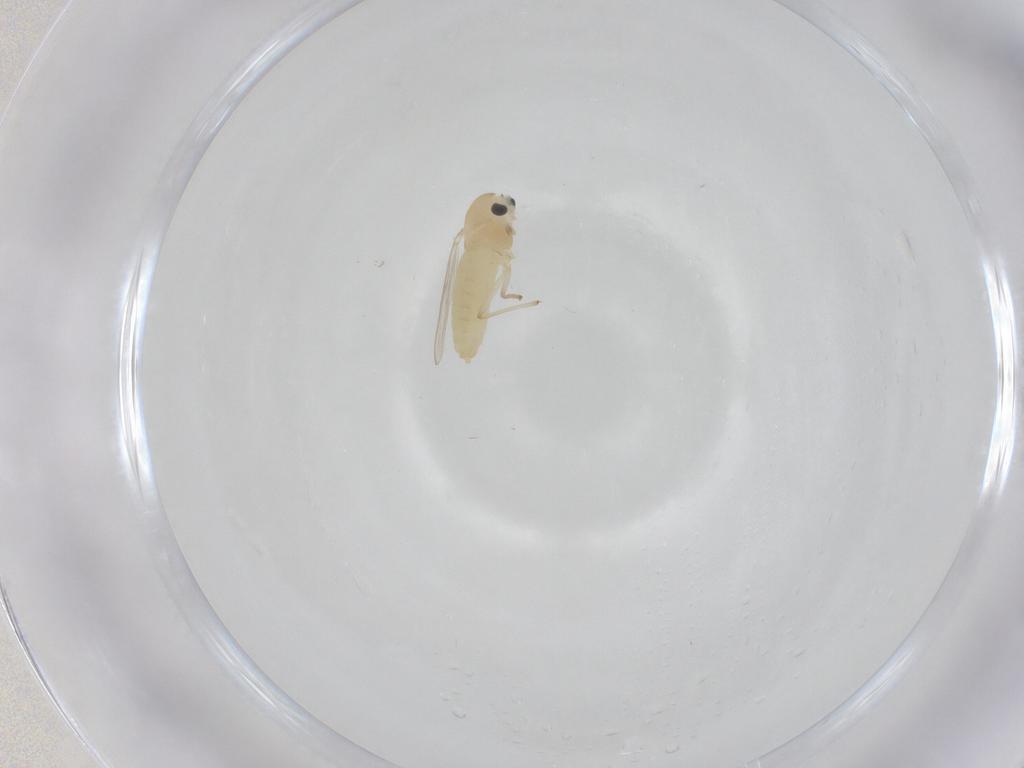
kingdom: Animalia
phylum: Arthropoda
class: Insecta
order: Diptera
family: Chironomidae
